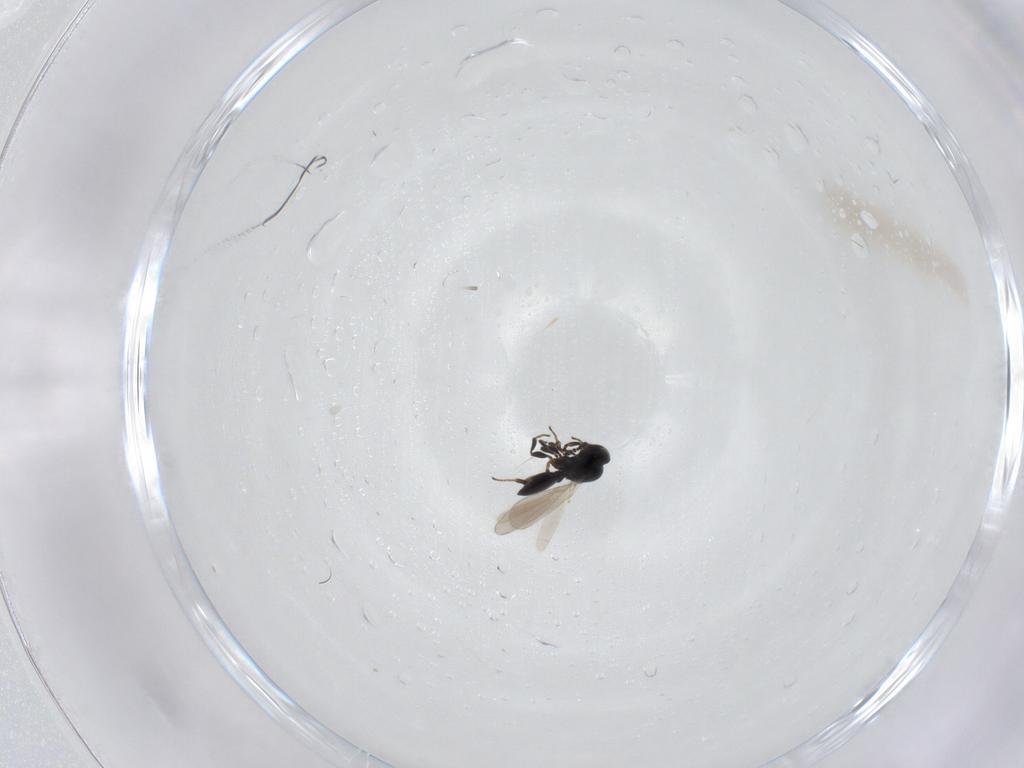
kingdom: Animalia
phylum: Arthropoda
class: Insecta
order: Hymenoptera
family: Platygastridae
